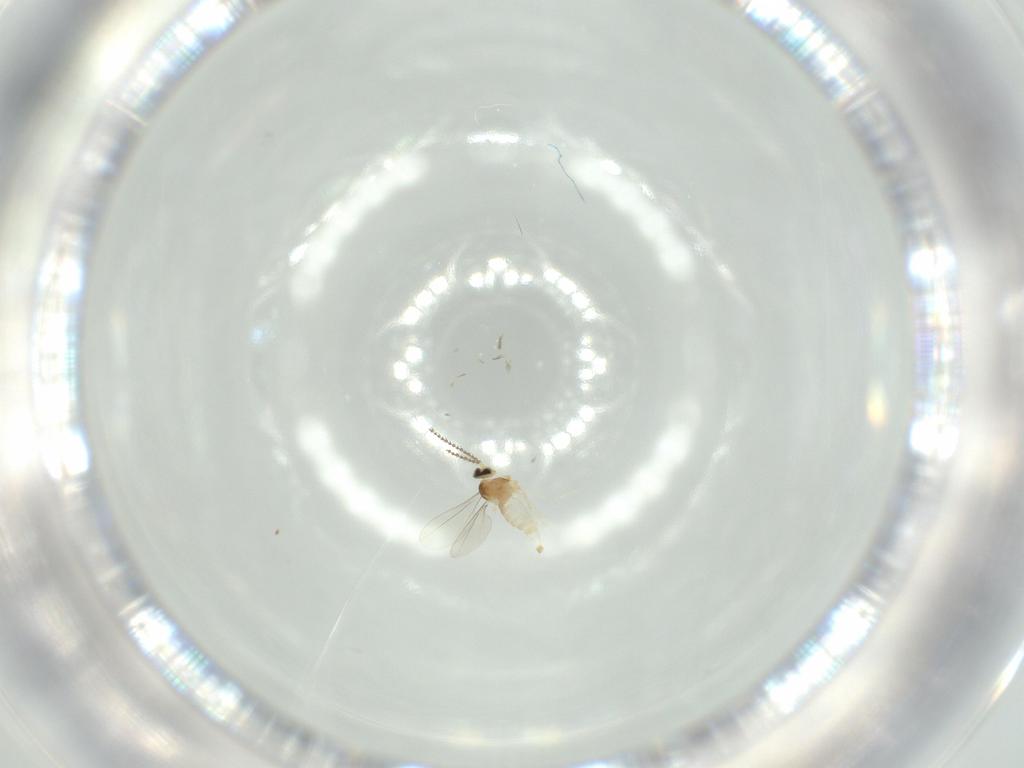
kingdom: Animalia
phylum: Arthropoda
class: Insecta
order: Diptera
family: Cecidomyiidae
